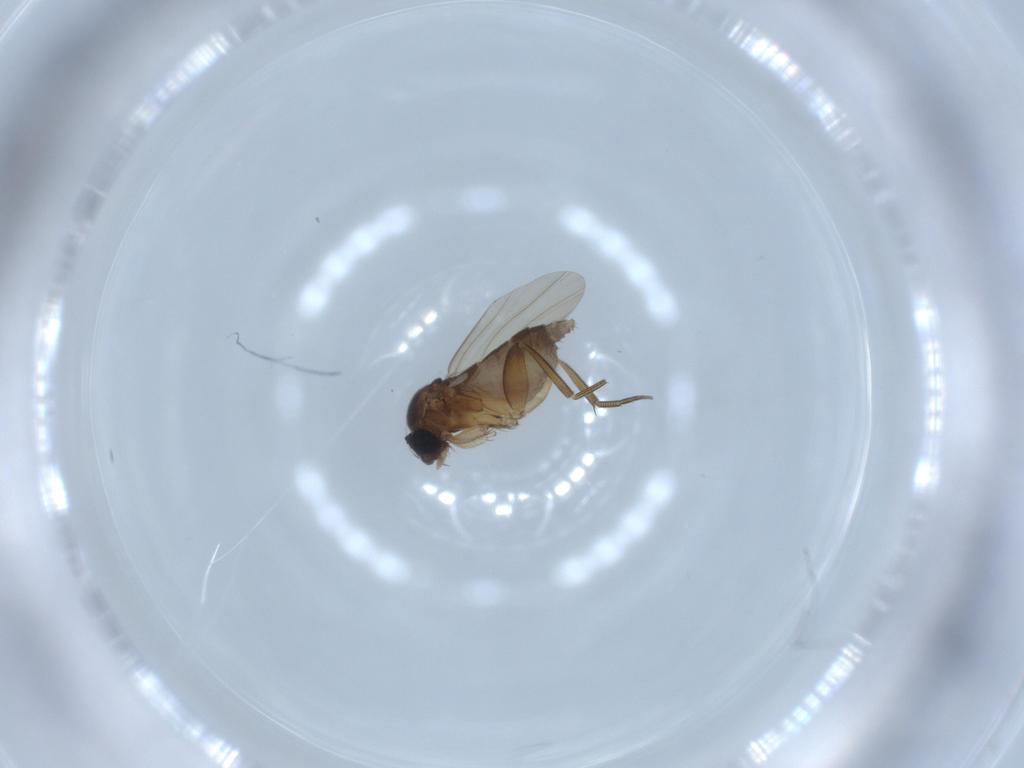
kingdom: Animalia
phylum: Arthropoda
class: Insecta
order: Diptera
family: Phoridae
